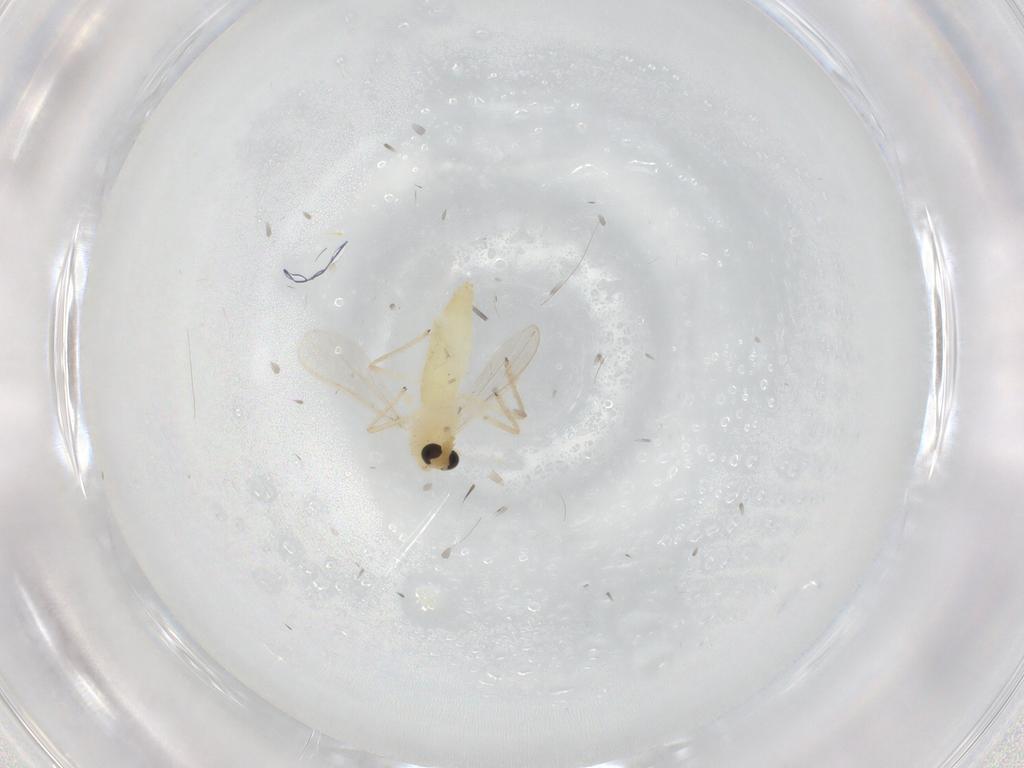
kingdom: Animalia
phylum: Arthropoda
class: Insecta
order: Diptera
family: Chironomidae
